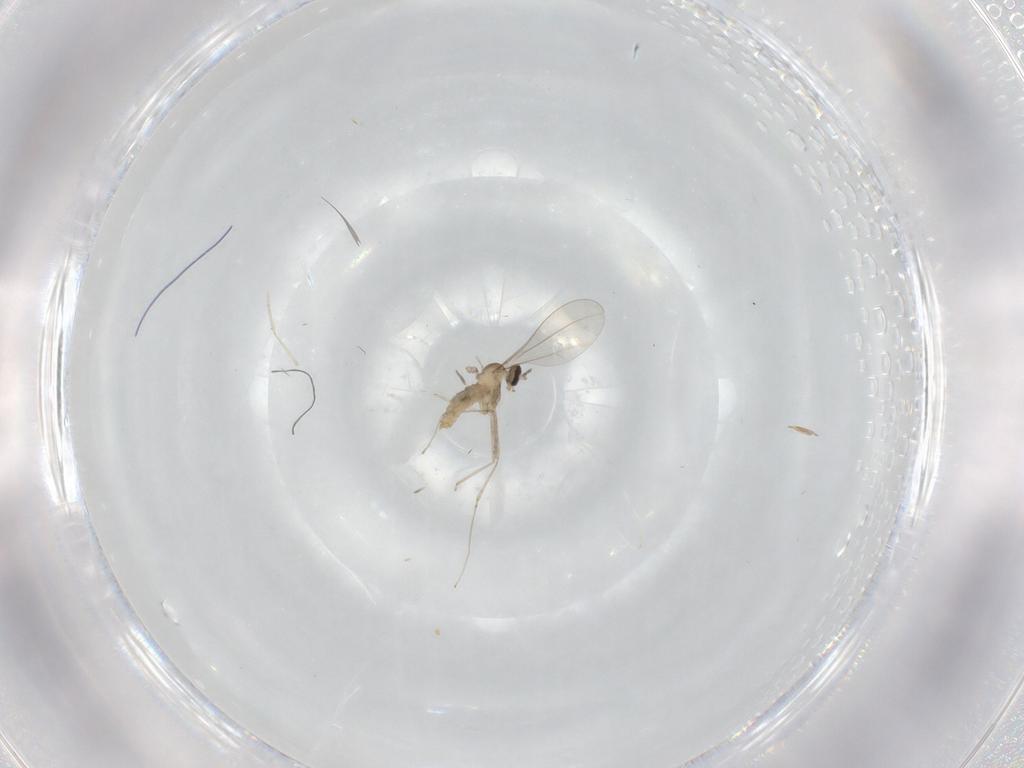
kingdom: Animalia
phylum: Arthropoda
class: Insecta
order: Diptera
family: Cecidomyiidae
